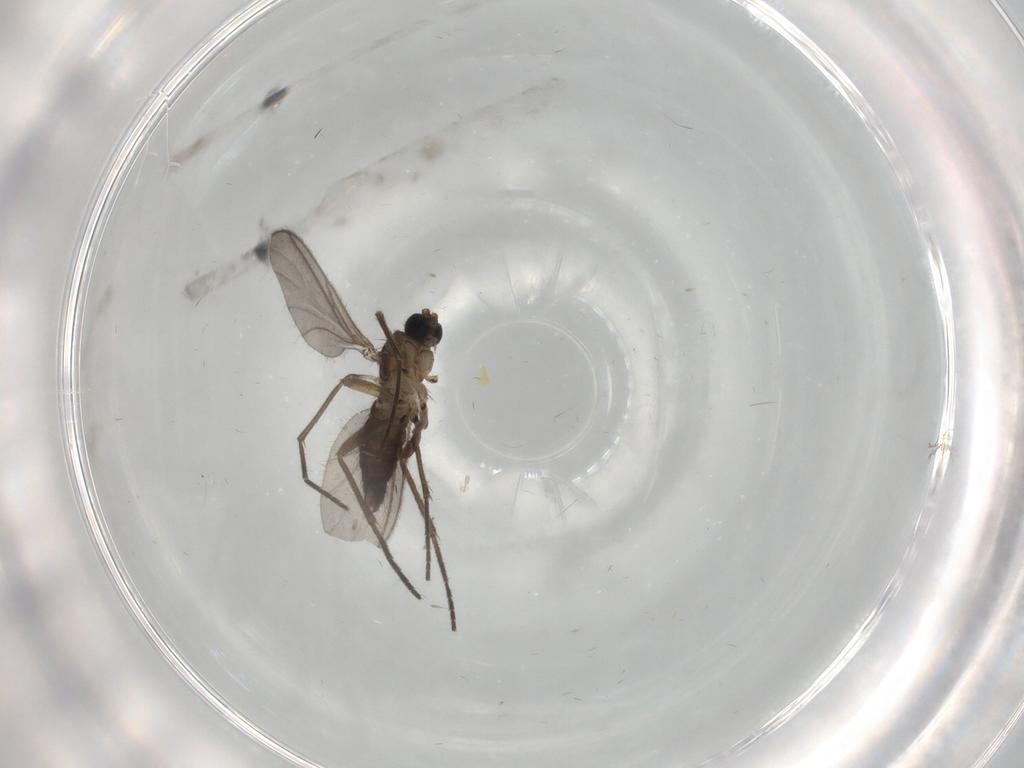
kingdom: Animalia
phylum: Arthropoda
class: Insecta
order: Diptera
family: Sciaridae
